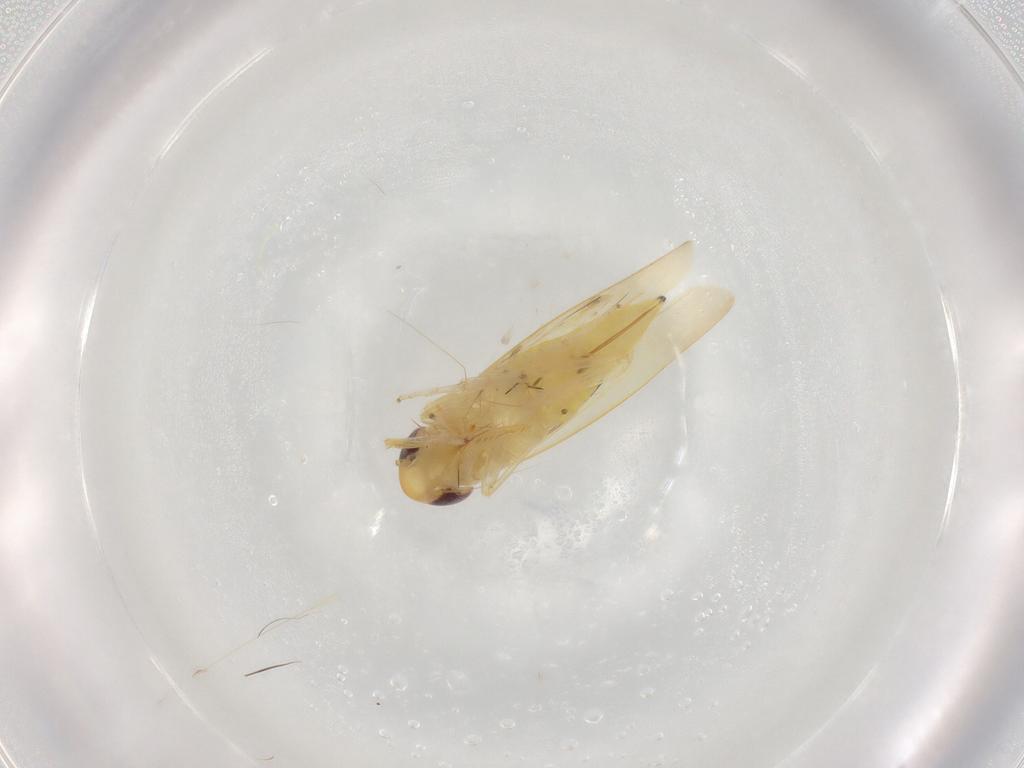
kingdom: Animalia
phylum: Arthropoda
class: Insecta
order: Hemiptera
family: Cicadellidae
